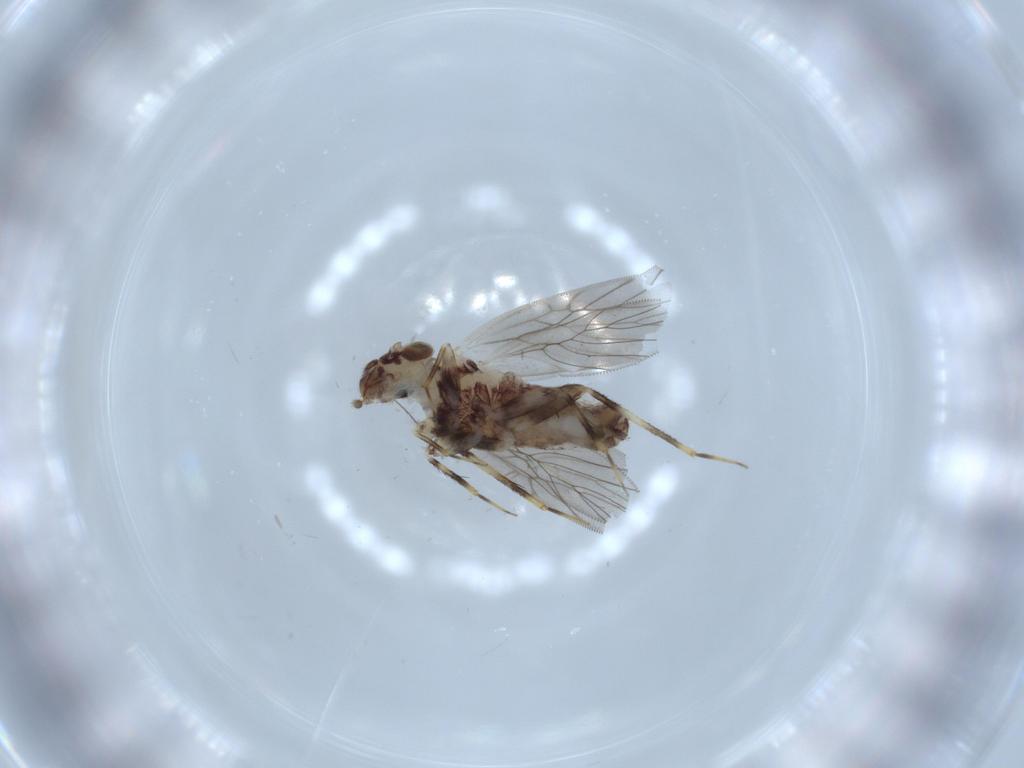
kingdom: Animalia
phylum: Arthropoda
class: Insecta
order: Psocodea
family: Lepidopsocidae
